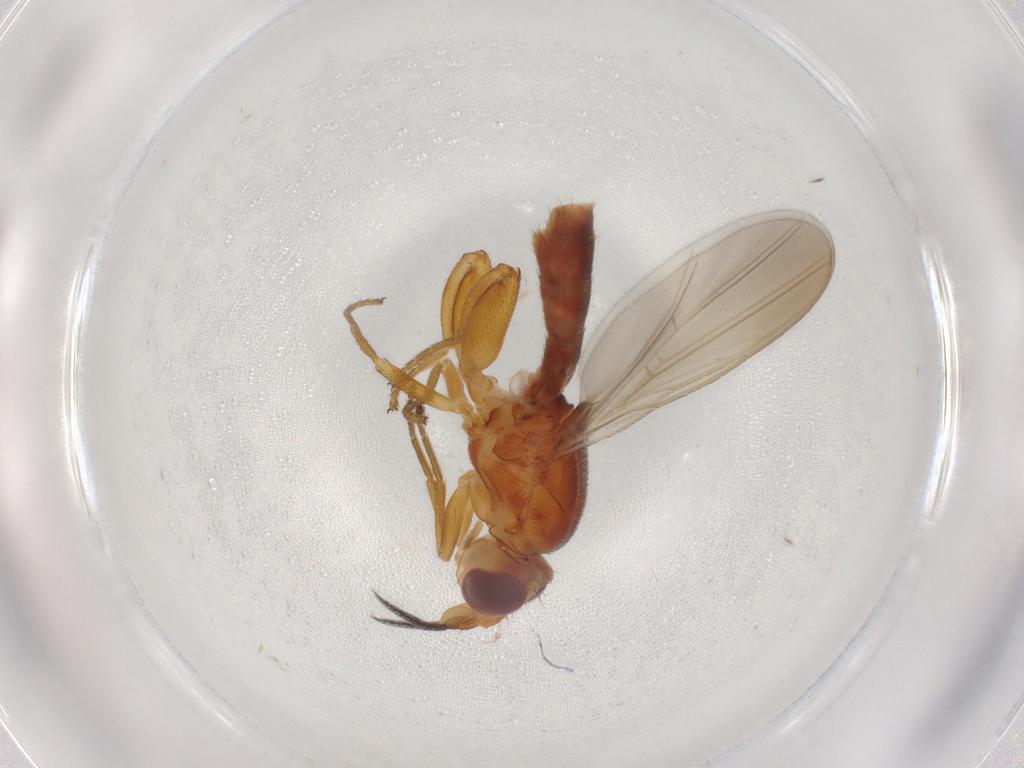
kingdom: Animalia
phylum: Arthropoda
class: Insecta
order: Diptera
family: Chloropidae
